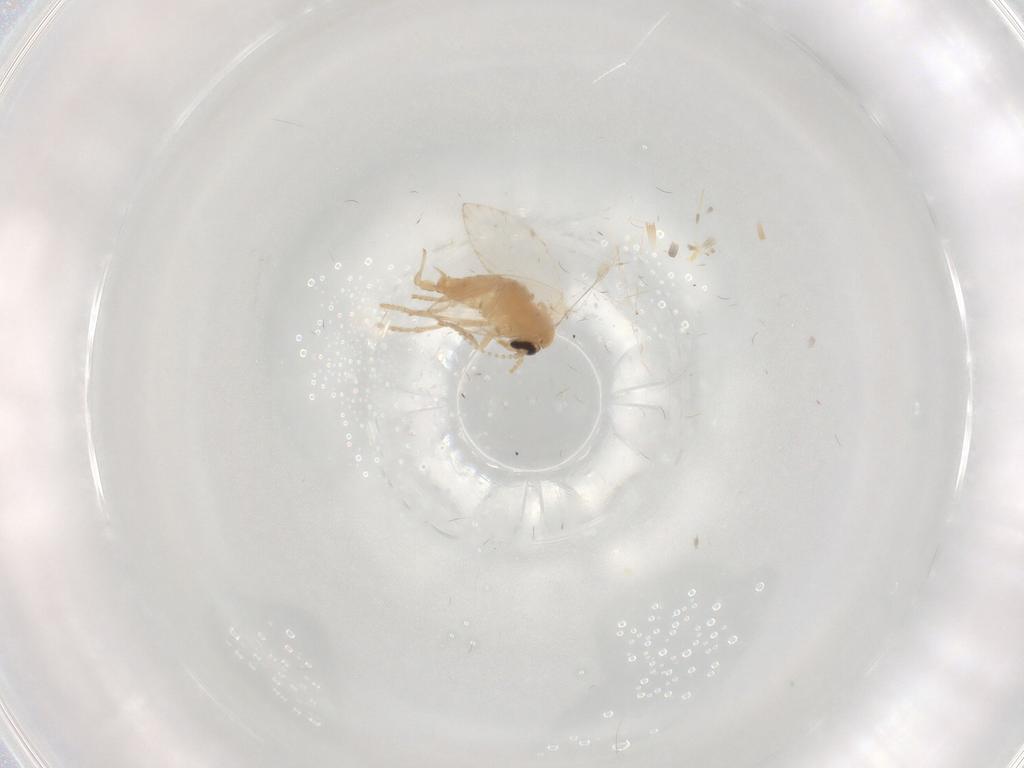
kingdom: Animalia
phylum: Arthropoda
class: Insecta
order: Diptera
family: Psychodidae
